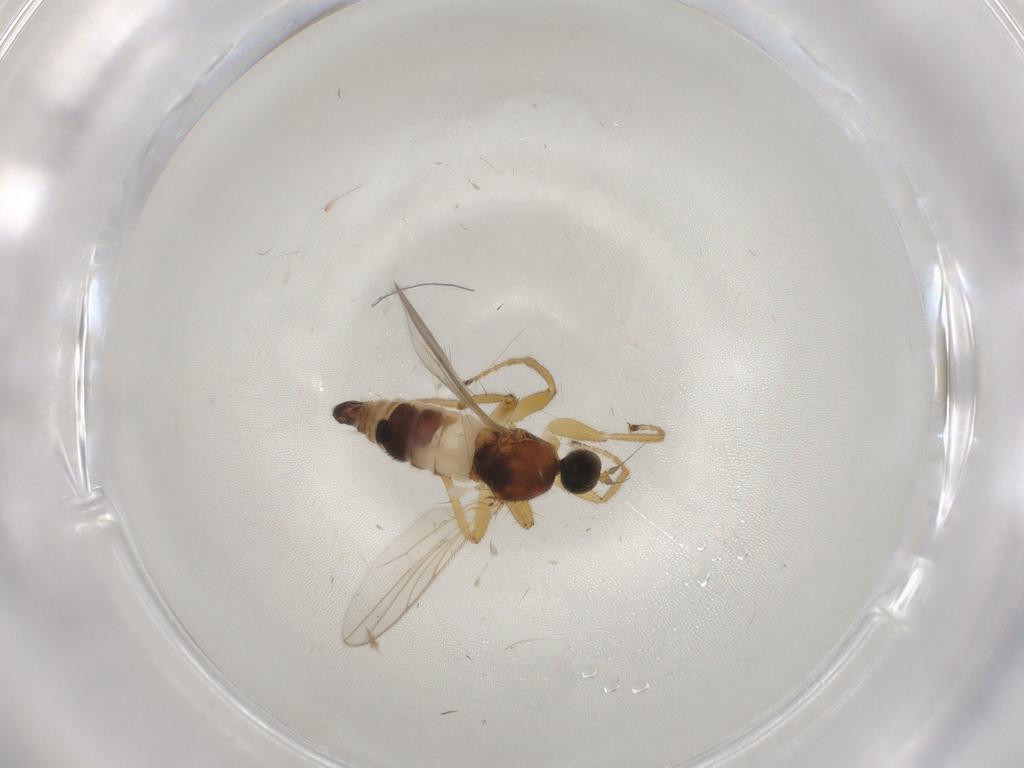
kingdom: Animalia
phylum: Arthropoda
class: Insecta
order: Diptera
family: Hybotidae
